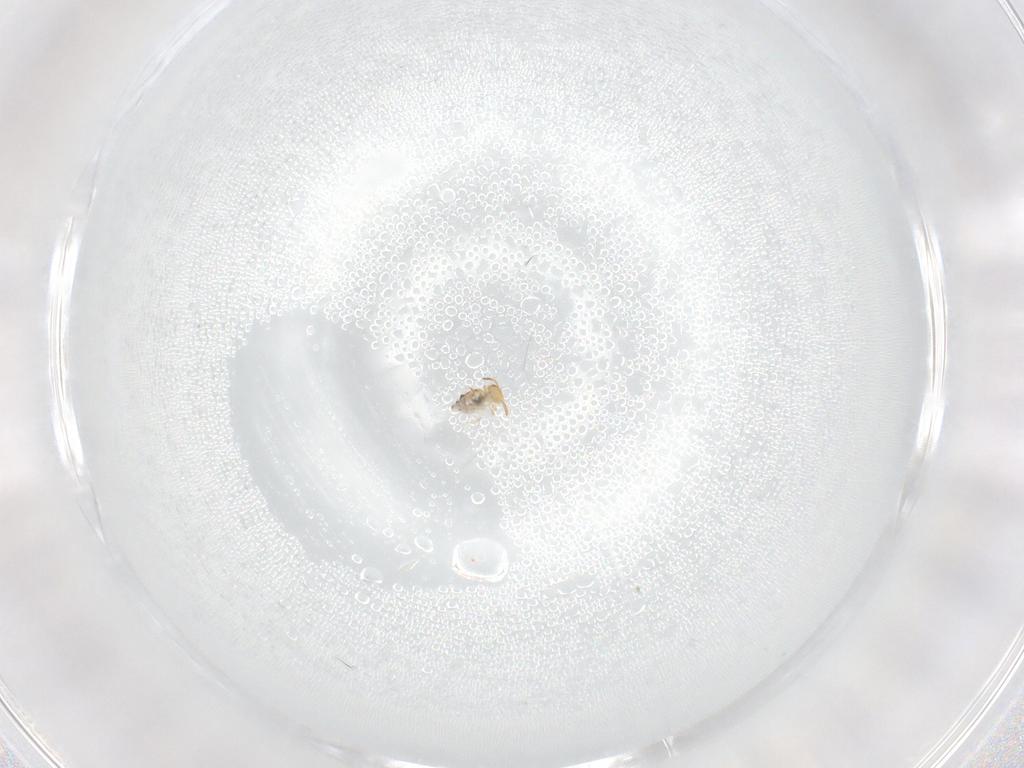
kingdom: Animalia
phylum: Arthropoda
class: Collembola
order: Symphypleona
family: Bourletiellidae
